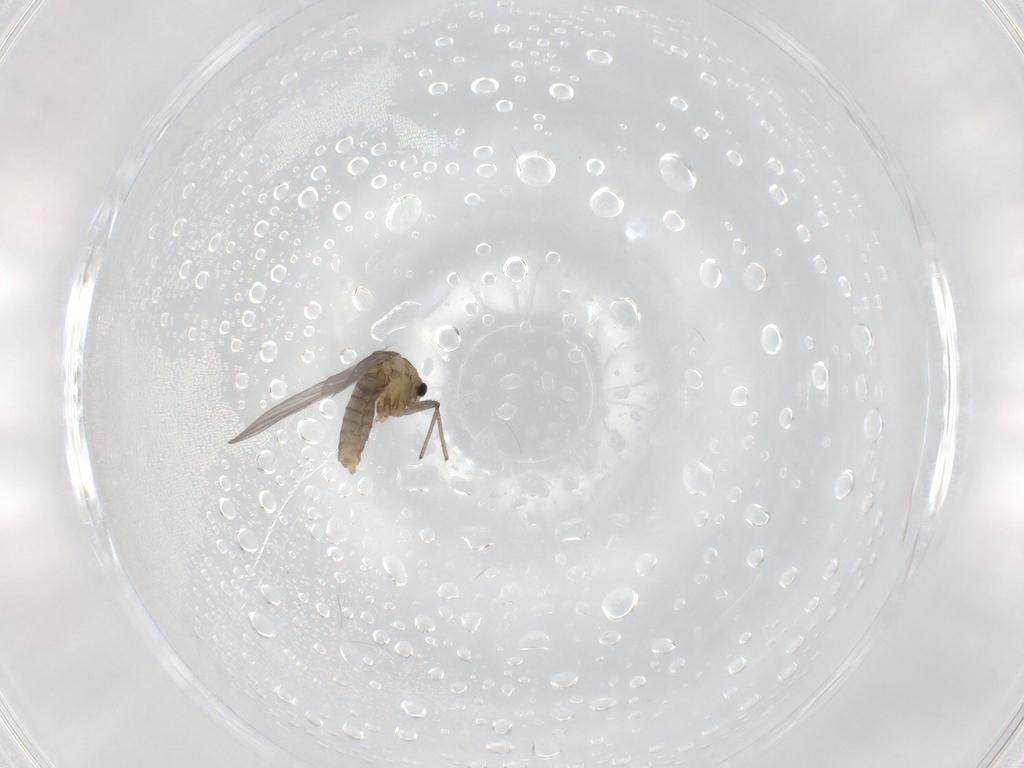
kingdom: Animalia
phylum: Arthropoda
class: Insecta
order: Diptera
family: Chironomidae
